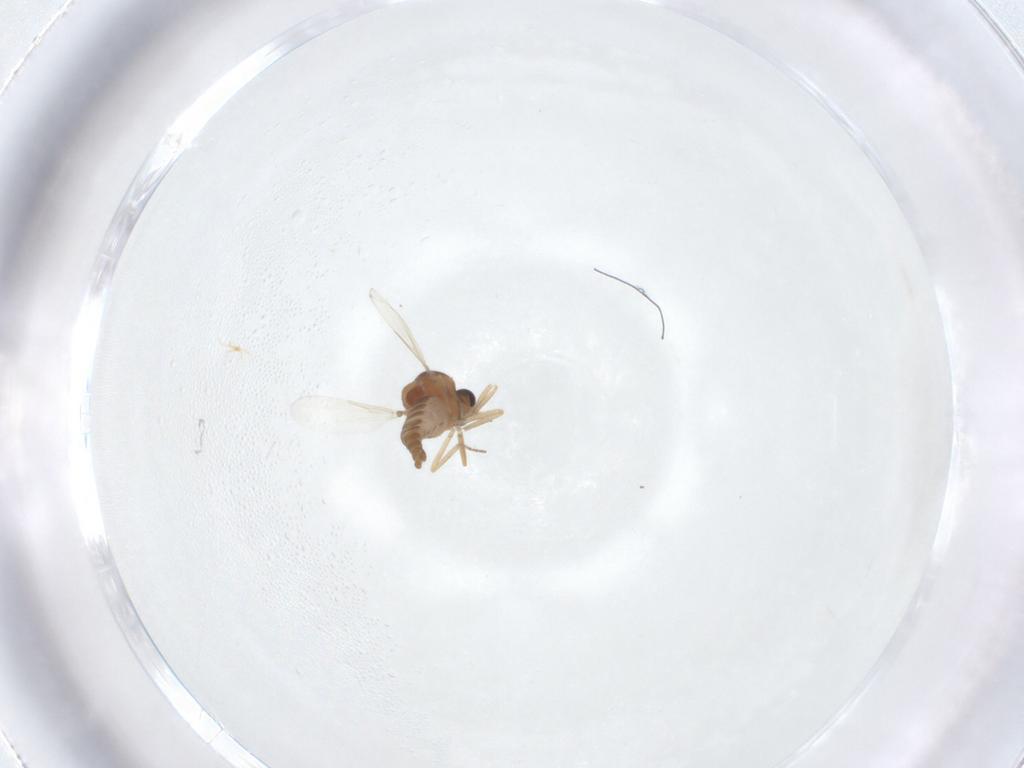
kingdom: Animalia
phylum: Arthropoda
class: Insecta
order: Diptera
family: Ceratopogonidae
